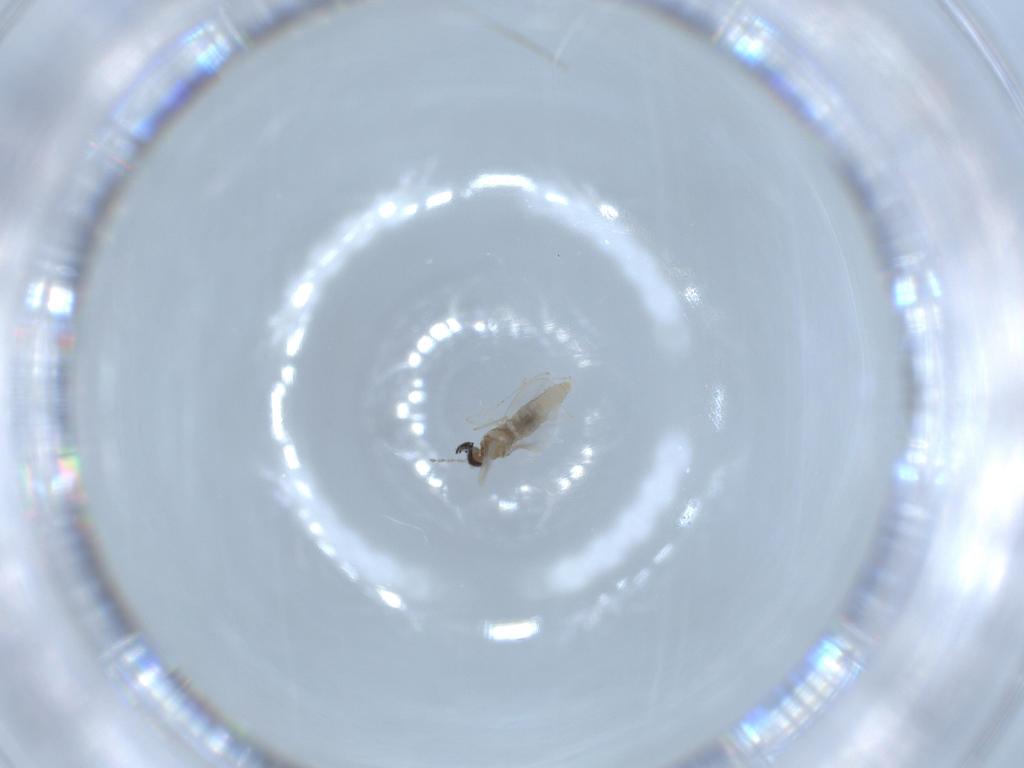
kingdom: Animalia
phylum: Arthropoda
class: Insecta
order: Diptera
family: Cecidomyiidae
